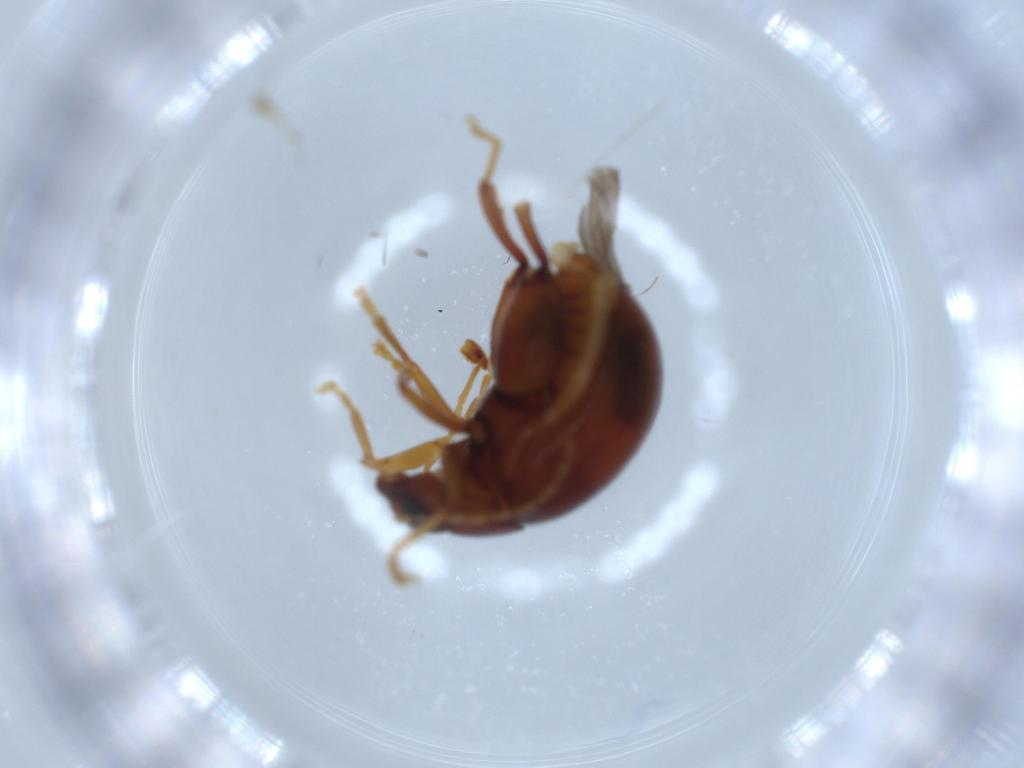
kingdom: Animalia
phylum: Arthropoda
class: Insecta
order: Coleoptera
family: Chrysomelidae
